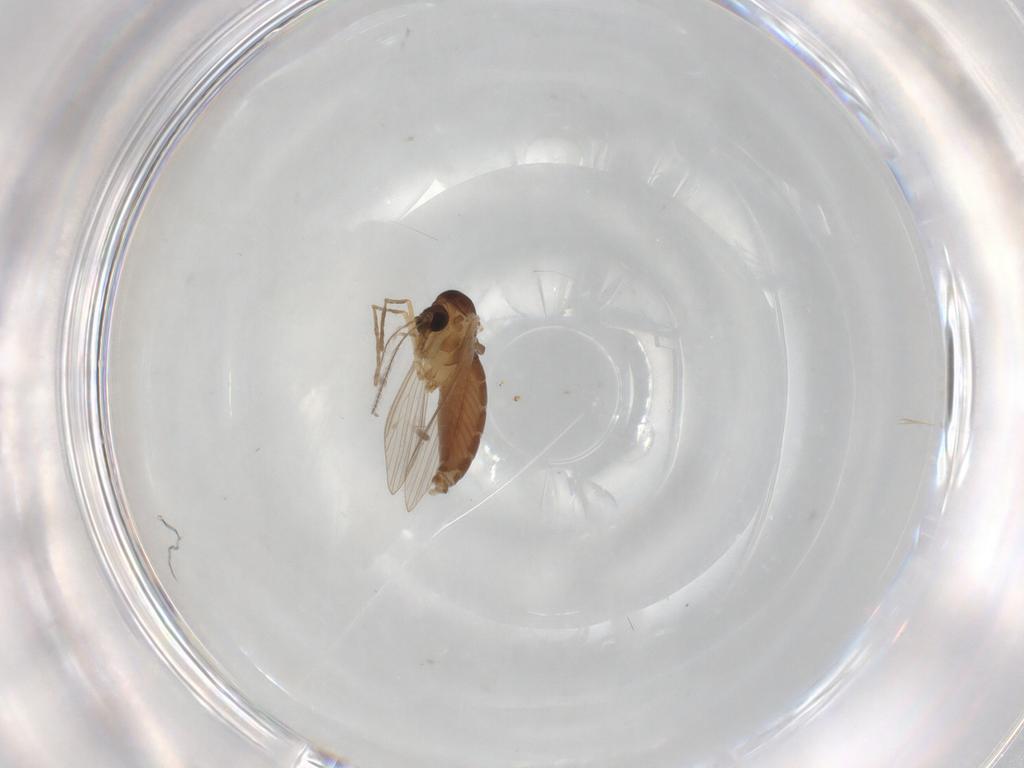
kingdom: Animalia
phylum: Arthropoda
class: Insecta
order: Diptera
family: Psychodidae
